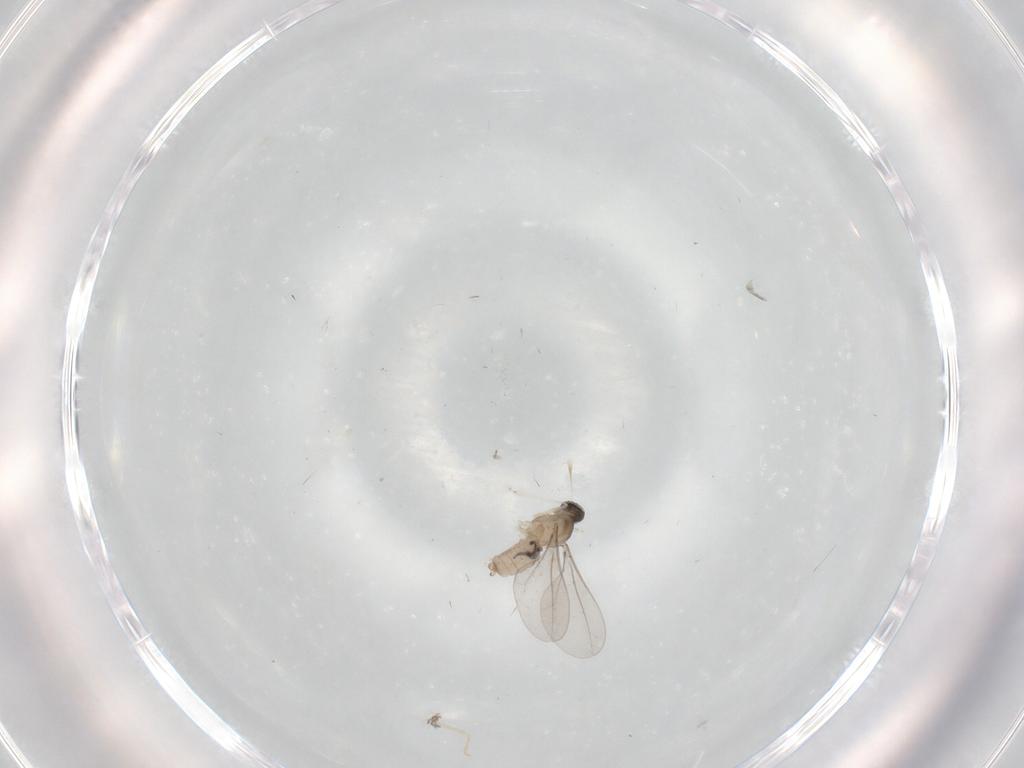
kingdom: Animalia
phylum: Arthropoda
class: Insecta
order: Diptera
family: Cecidomyiidae
